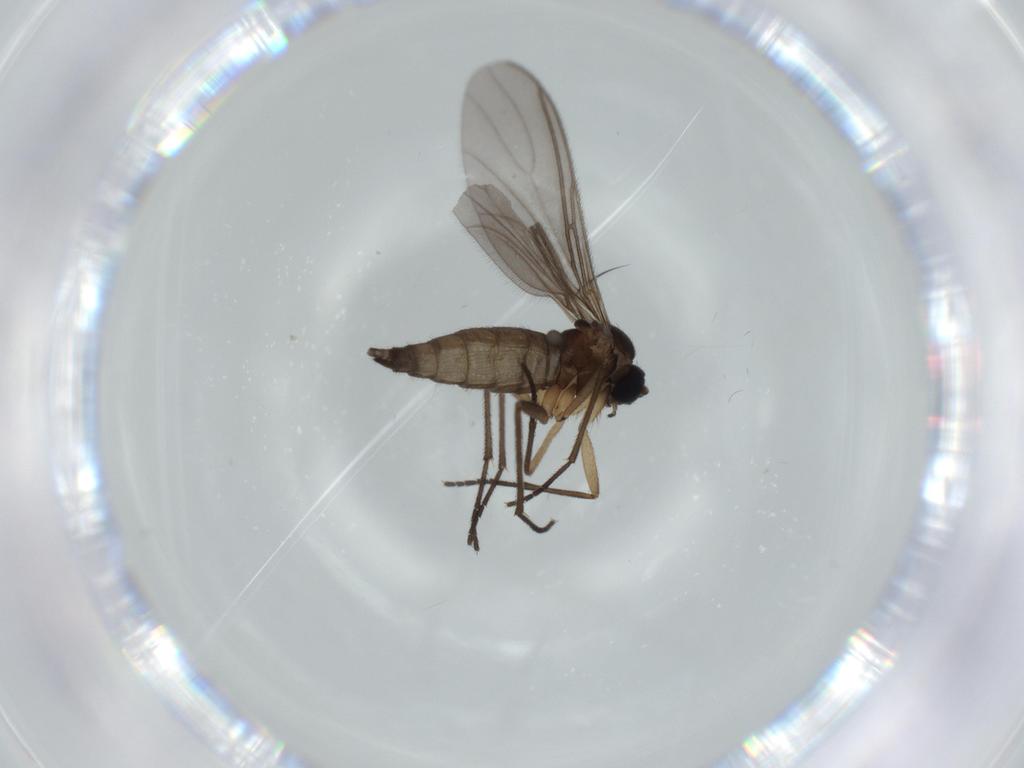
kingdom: Animalia
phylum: Arthropoda
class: Insecta
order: Diptera
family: Sciaridae
